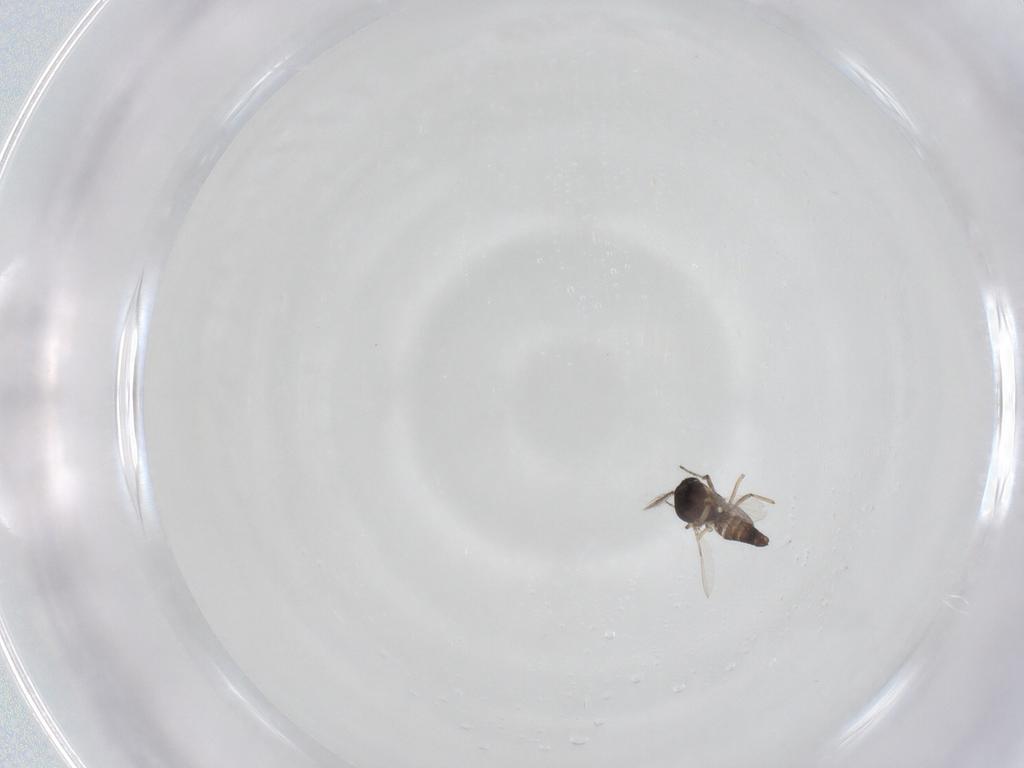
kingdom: Animalia
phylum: Arthropoda
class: Insecta
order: Diptera
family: Ceratopogonidae
